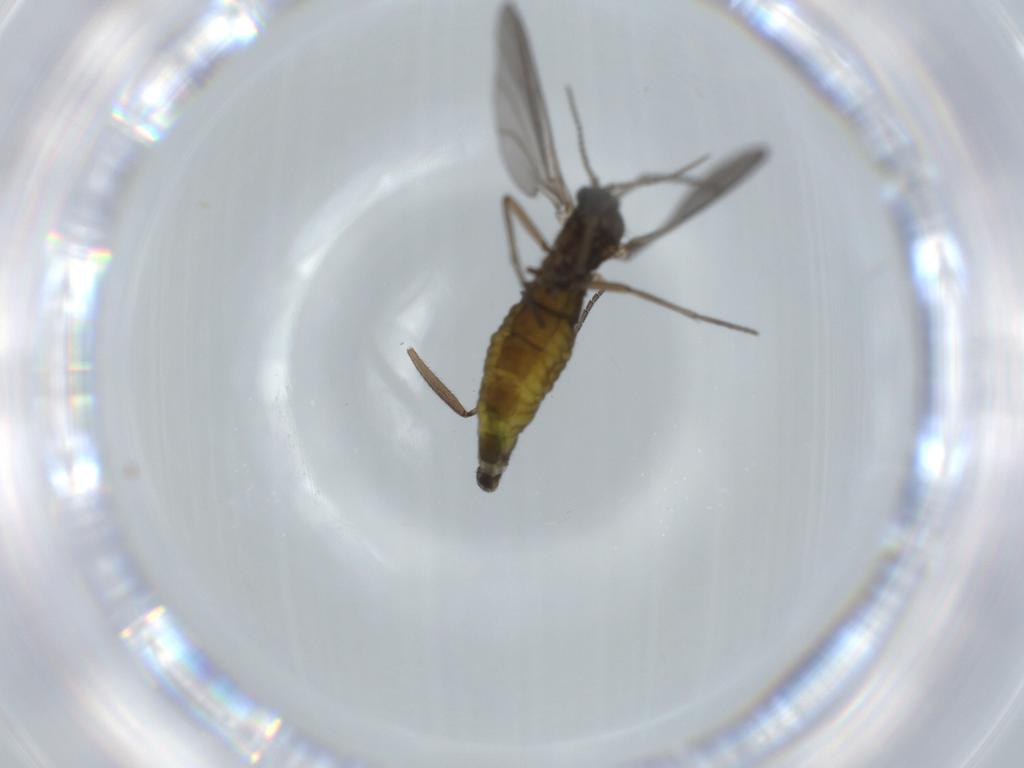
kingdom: Animalia
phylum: Arthropoda
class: Insecta
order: Diptera
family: Sciaridae
